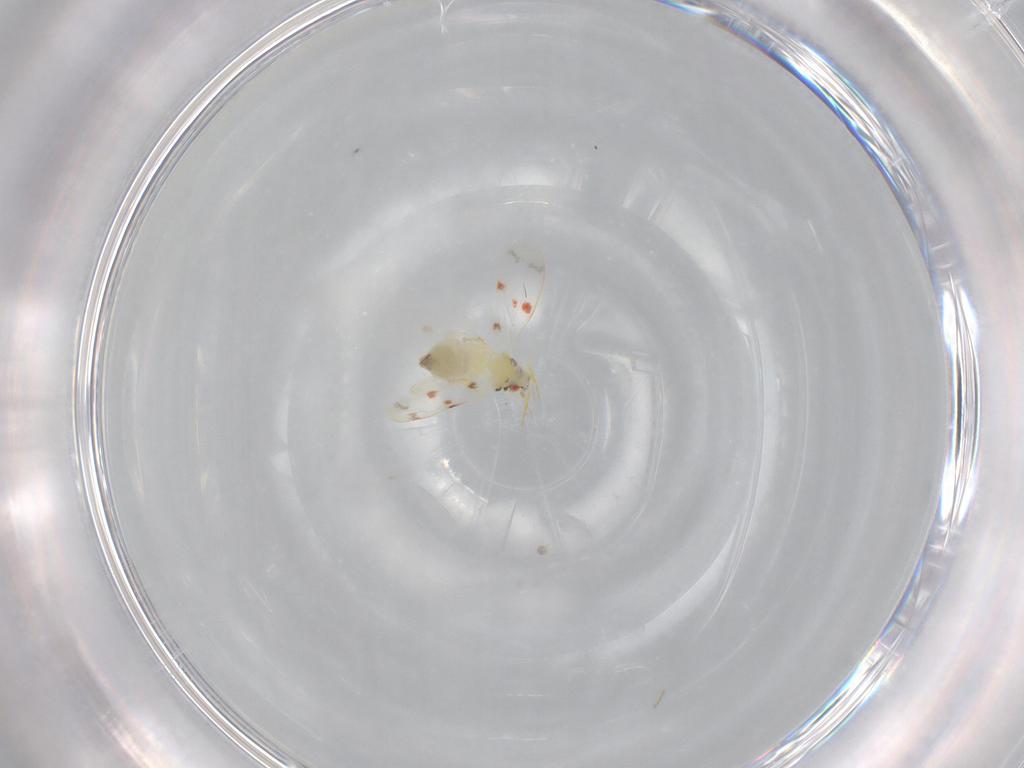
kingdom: Animalia
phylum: Arthropoda
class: Insecta
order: Hemiptera
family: Aleyrodidae
